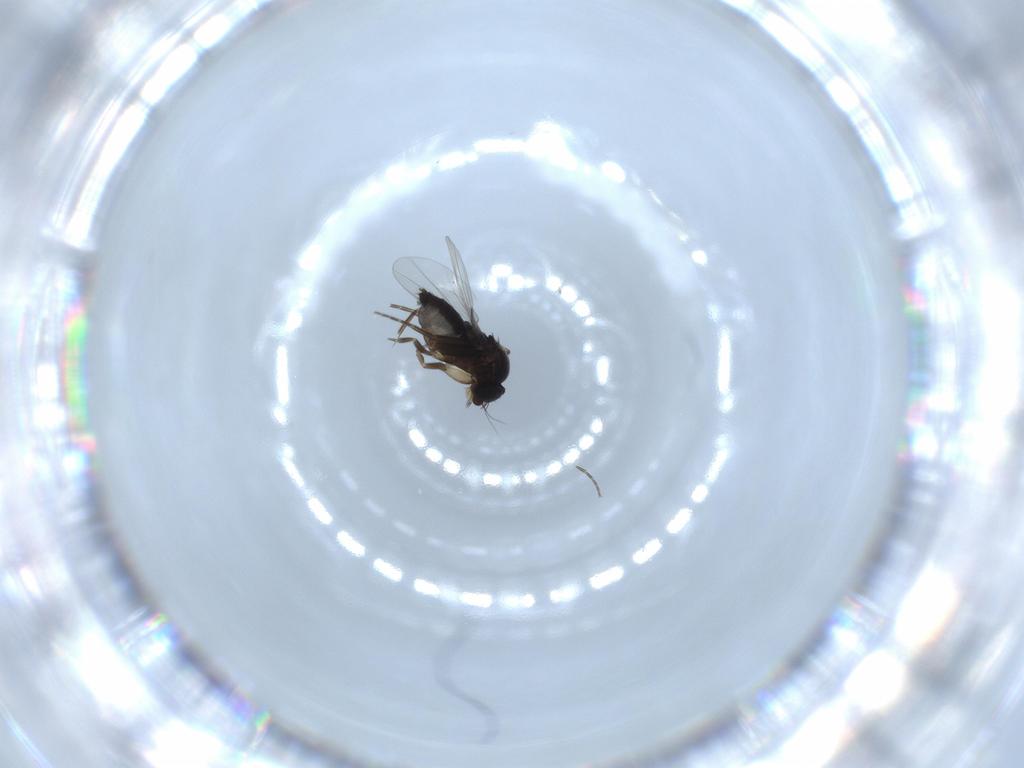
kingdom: Animalia
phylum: Arthropoda
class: Insecta
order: Diptera
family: Phoridae
